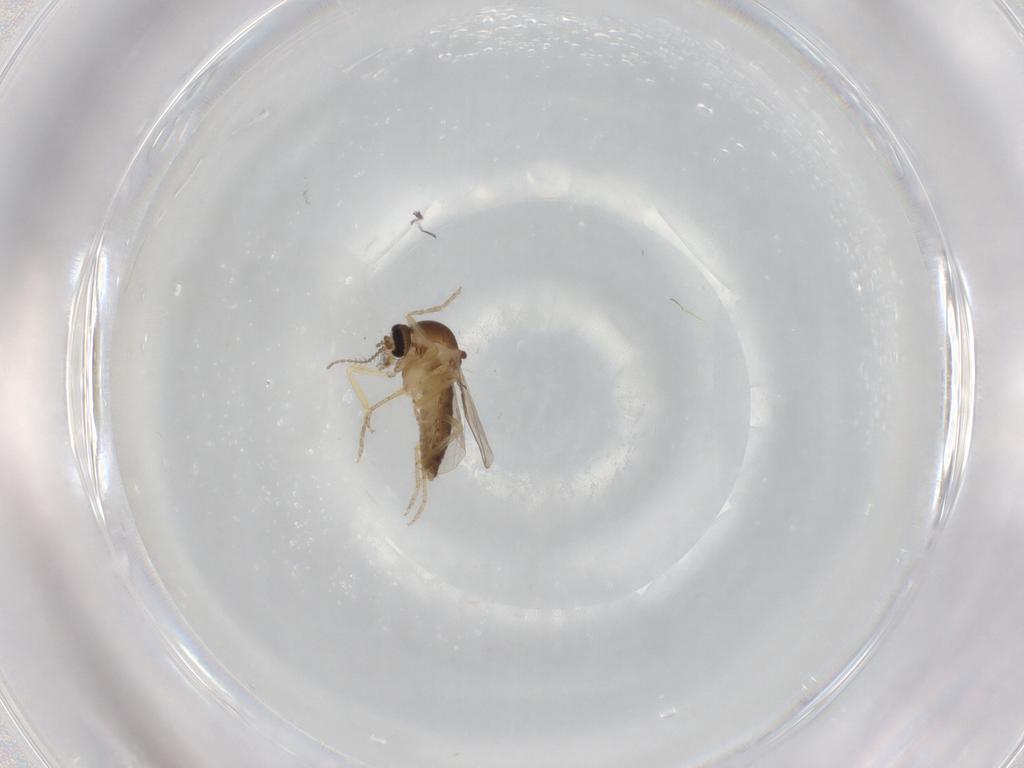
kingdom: Animalia
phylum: Arthropoda
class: Insecta
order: Diptera
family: Ceratopogonidae
